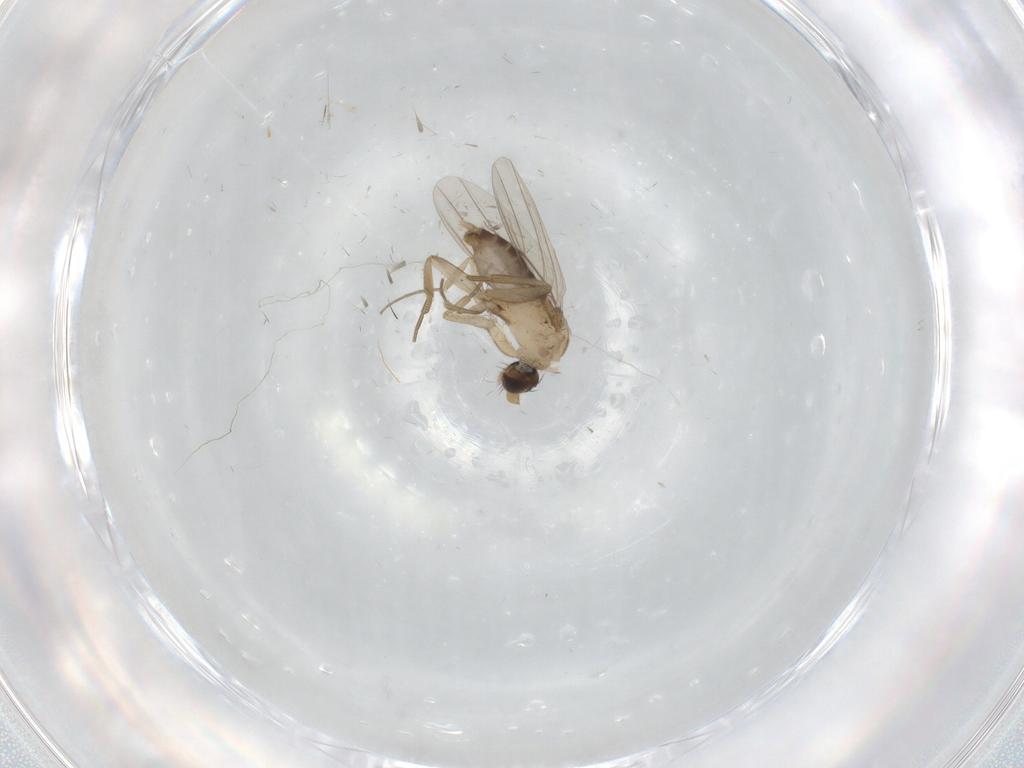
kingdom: Animalia
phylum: Arthropoda
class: Insecta
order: Diptera
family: Phoridae
